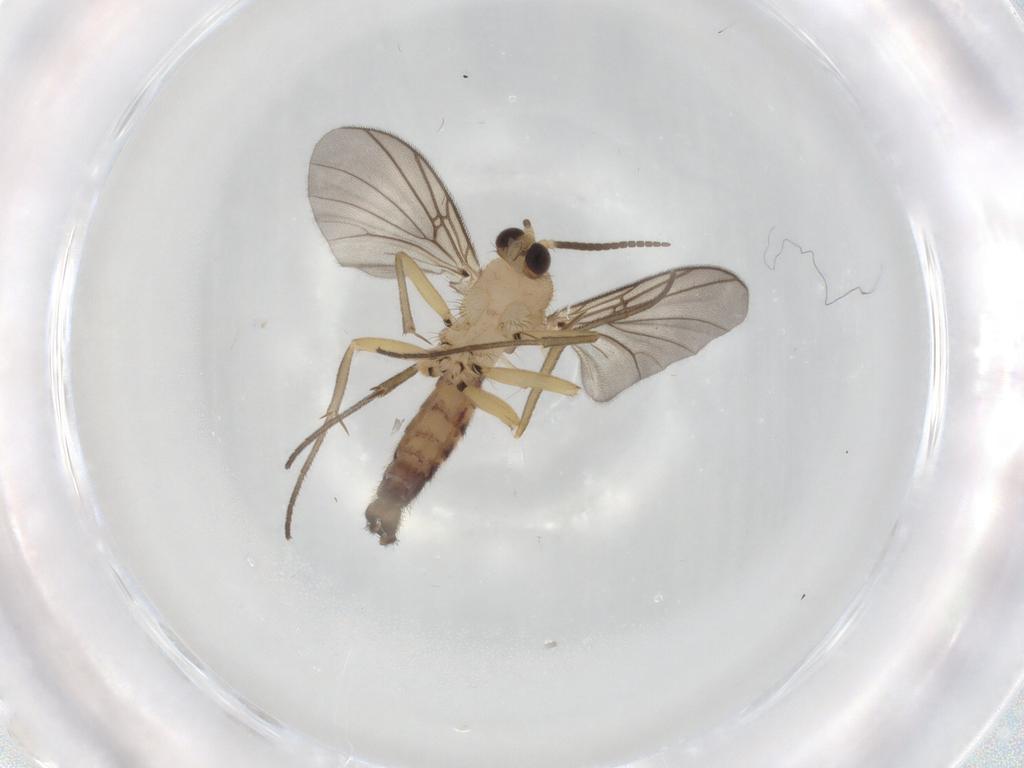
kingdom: Animalia
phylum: Arthropoda
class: Insecta
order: Diptera
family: Mycetophilidae
